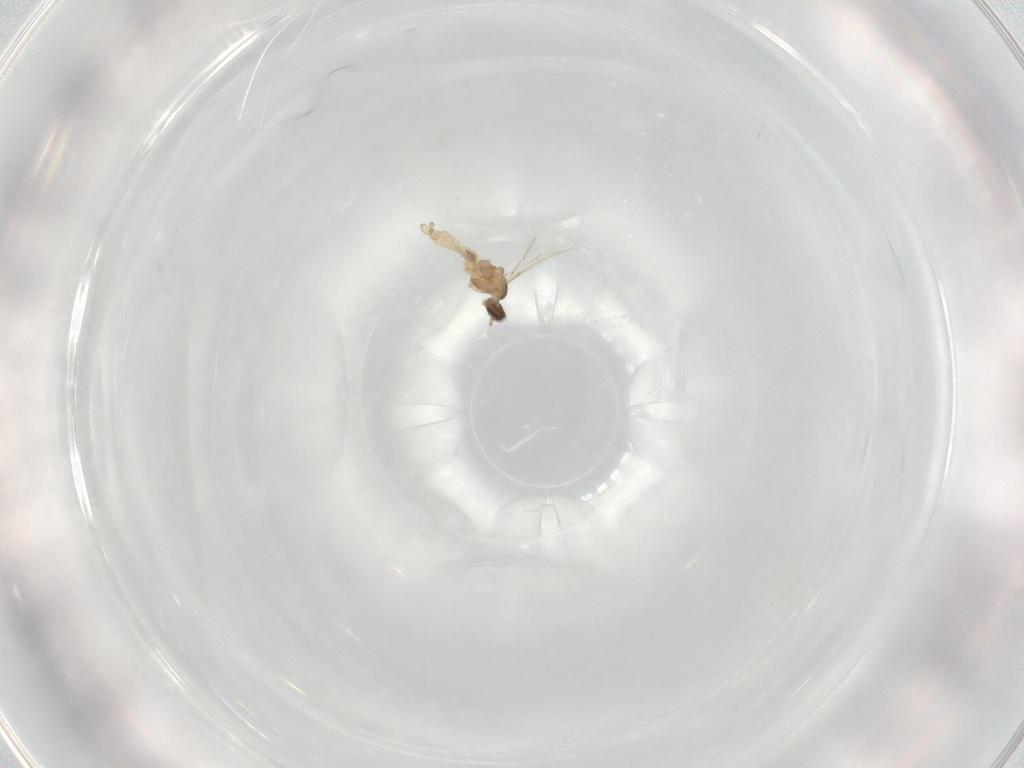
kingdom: Animalia
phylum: Arthropoda
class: Insecta
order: Diptera
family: Cecidomyiidae
